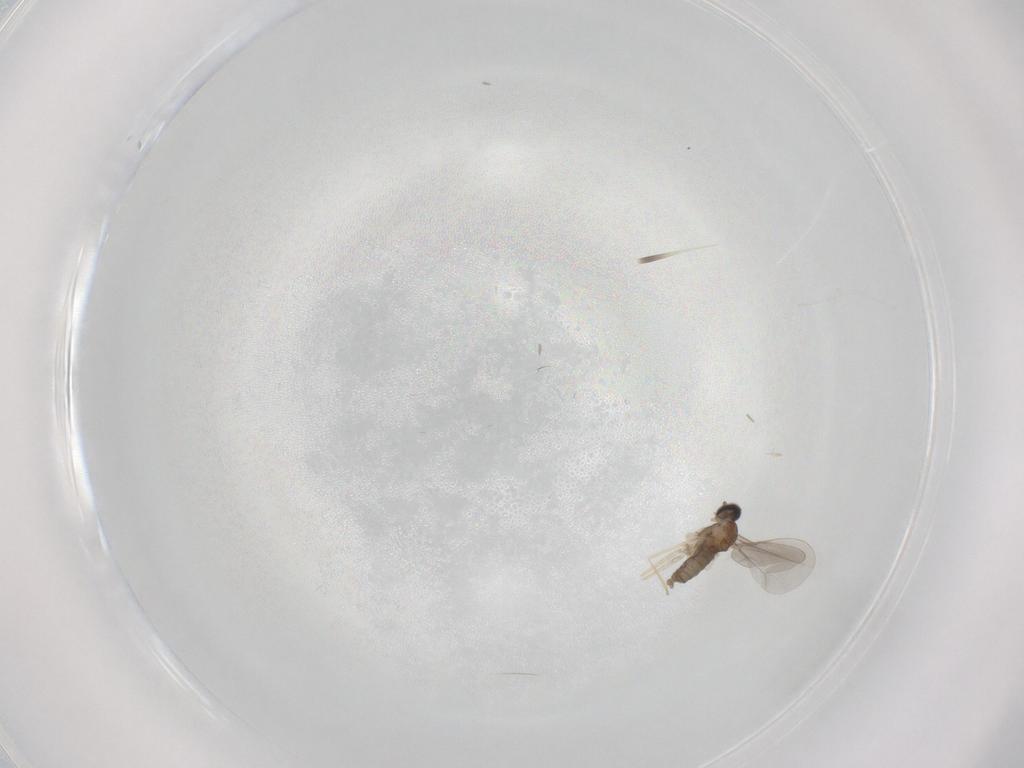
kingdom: Animalia
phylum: Arthropoda
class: Insecta
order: Diptera
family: Cecidomyiidae
